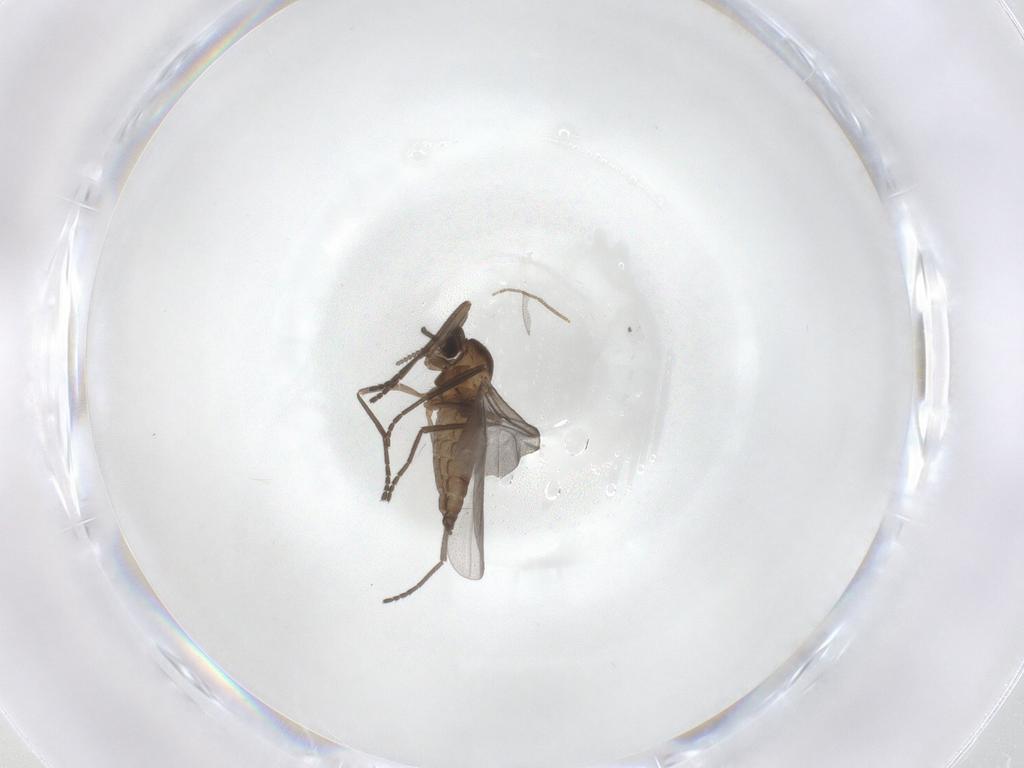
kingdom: Animalia
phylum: Arthropoda
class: Insecta
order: Diptera
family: Cecidomyiidae
